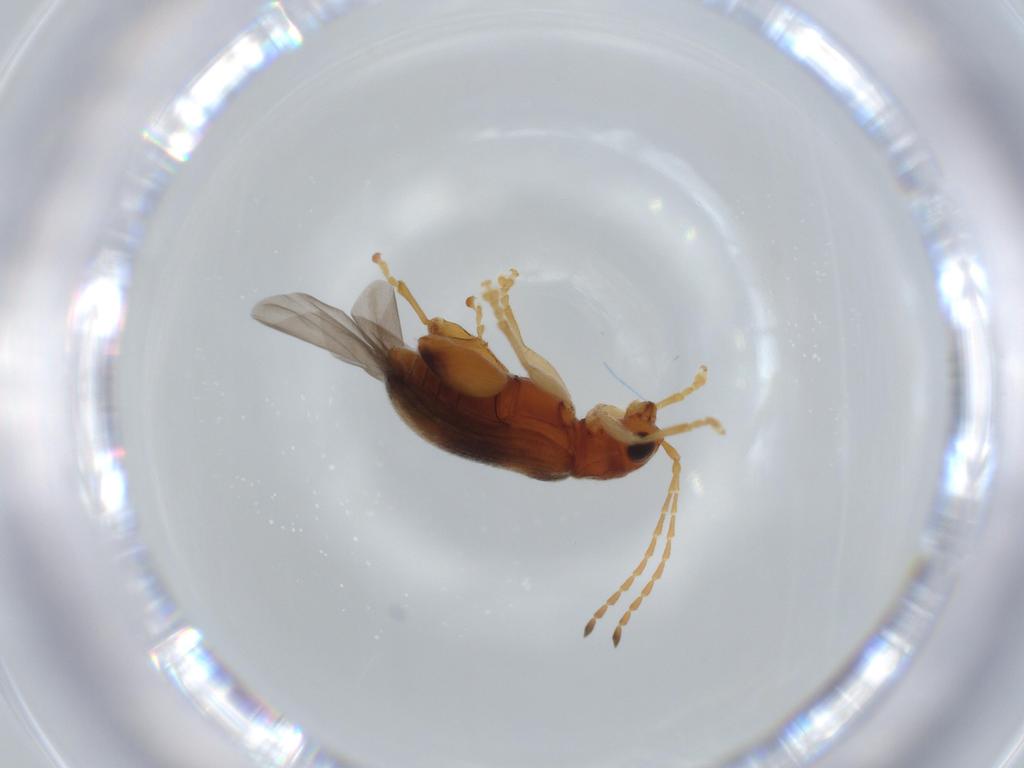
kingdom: Animalia
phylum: Arthropoda
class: Insecta
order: Coleoptera
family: Chrysomelidae
